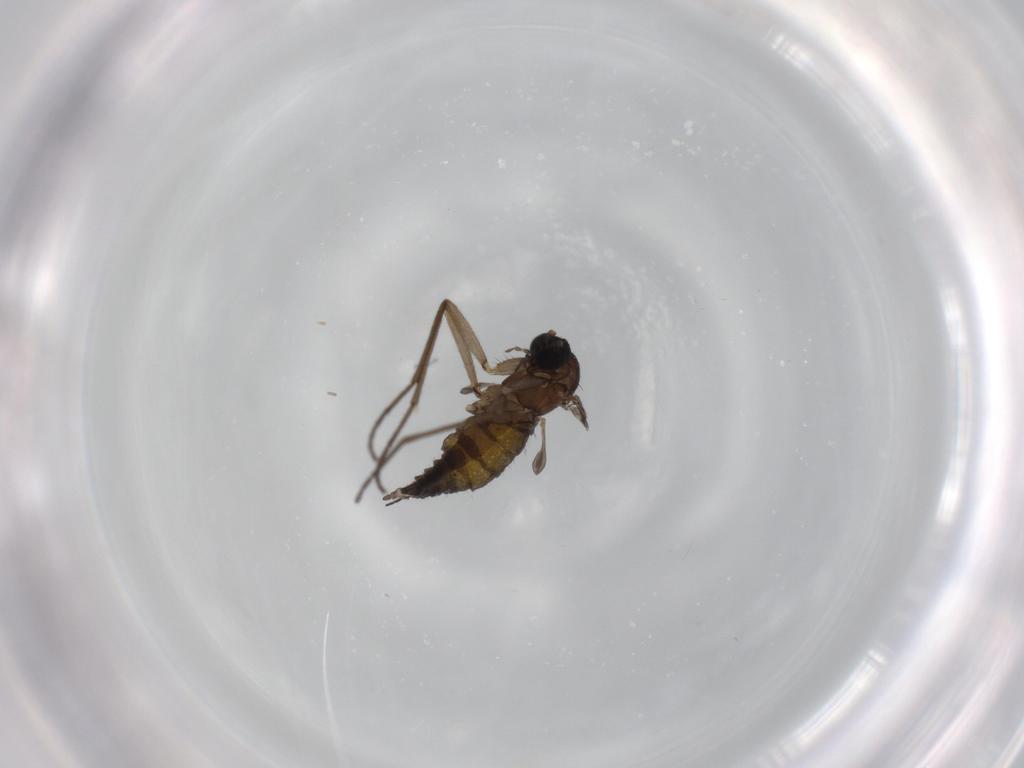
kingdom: Animalia
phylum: Arthropoda
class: Insecta
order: Diptera
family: Sciaridae
